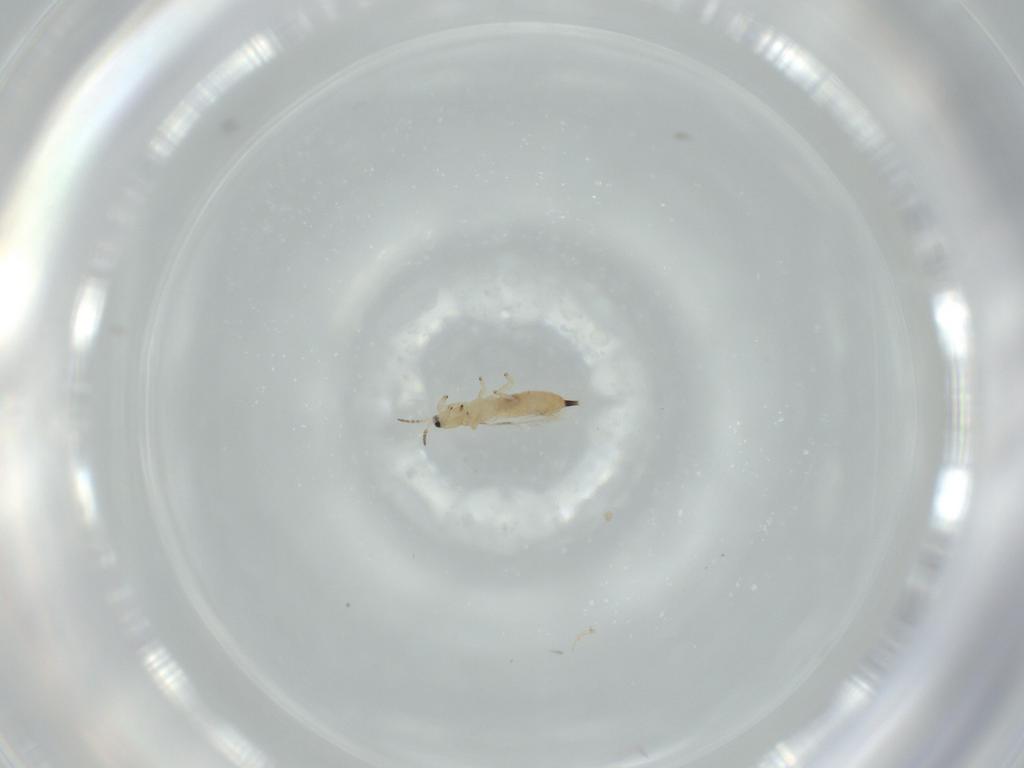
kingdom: Animalia
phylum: Arthropoda
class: Insecta
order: Thysanoptera
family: Phlaeothripidae
